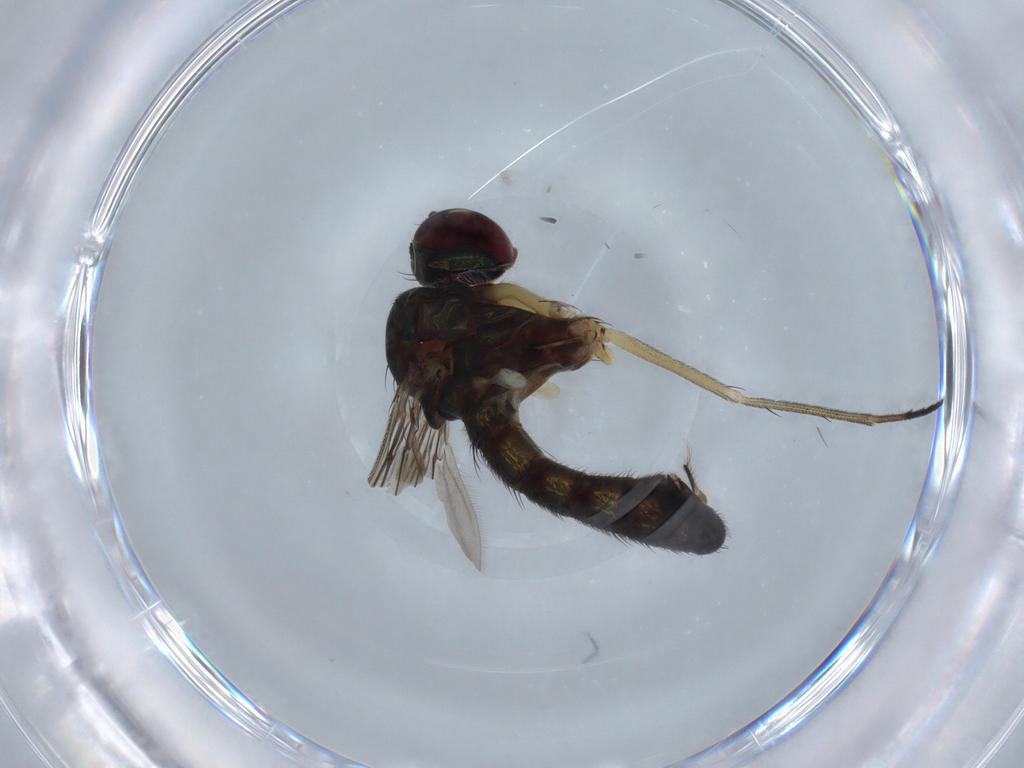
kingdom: Animalia
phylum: Arthropoda
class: Insecta
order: Diptera
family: Dolichopodidae
